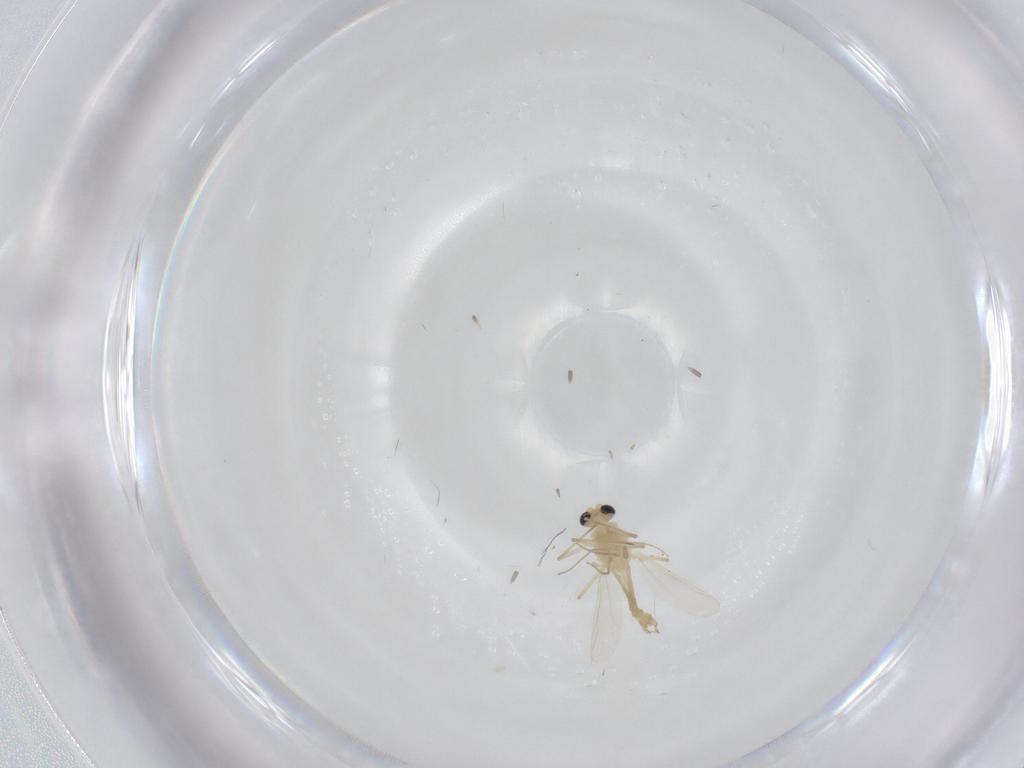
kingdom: Animalia
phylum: Arthropoda
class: Insecta
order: Diptera
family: Chironomidae
